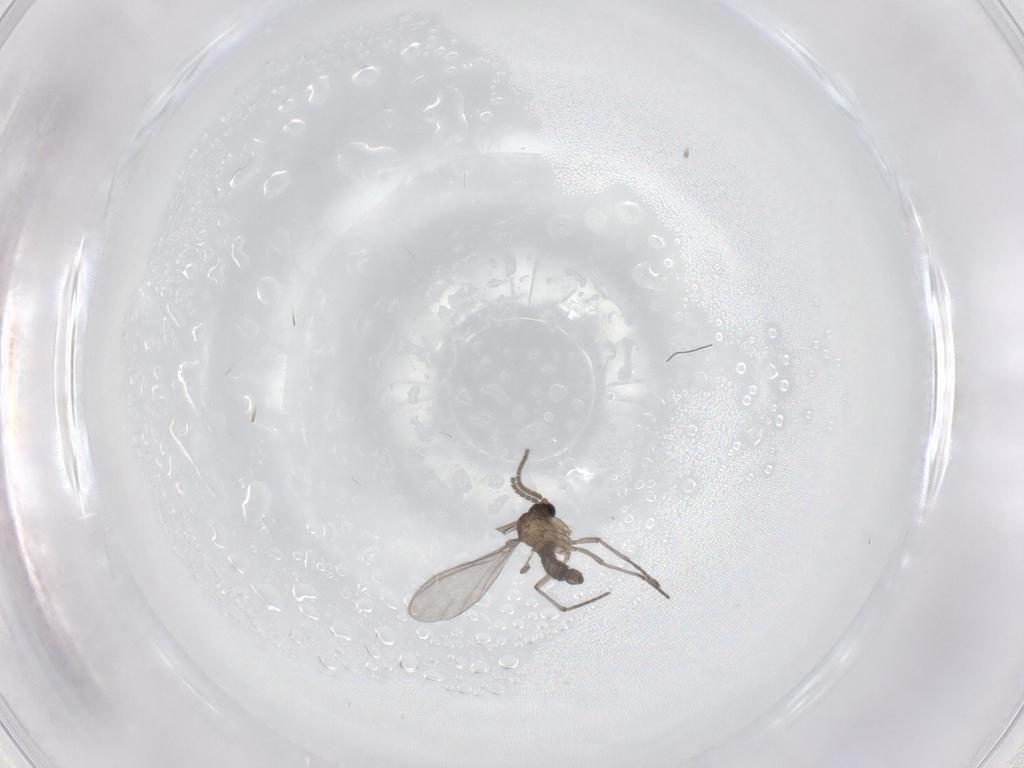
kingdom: Animalia
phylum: Arthropoda
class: Insecta
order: Diptera
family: Sciaridae
